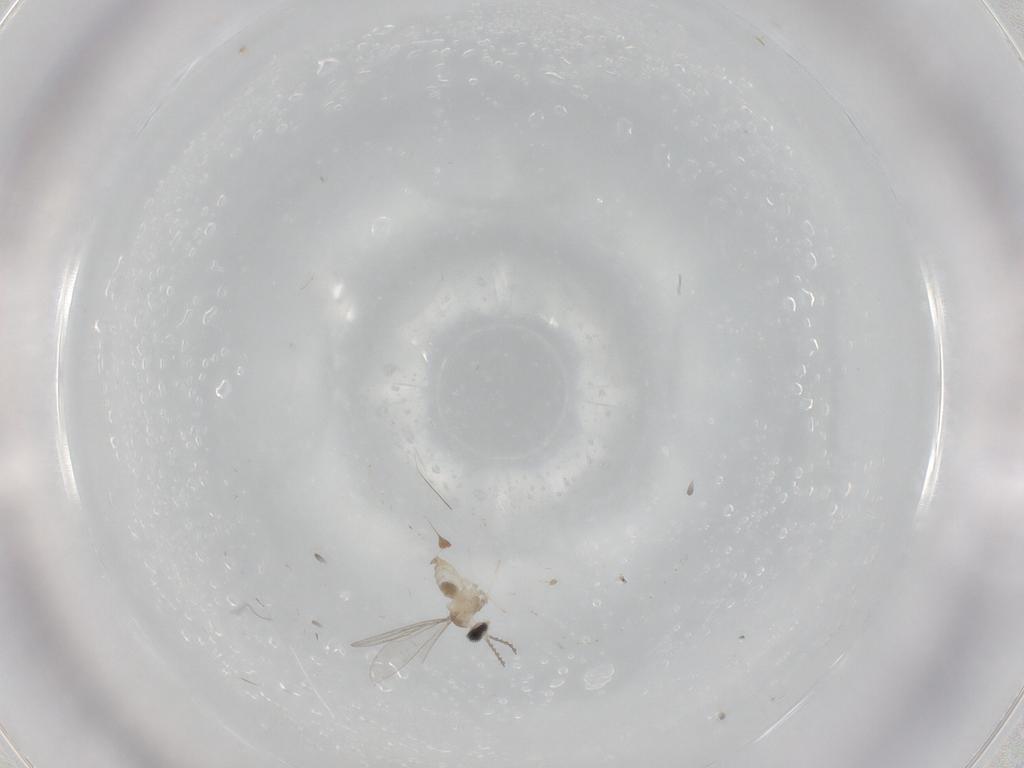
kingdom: Animalia
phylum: Arthropoda
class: Insecta
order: Diptera
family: Cecidomyiidae
